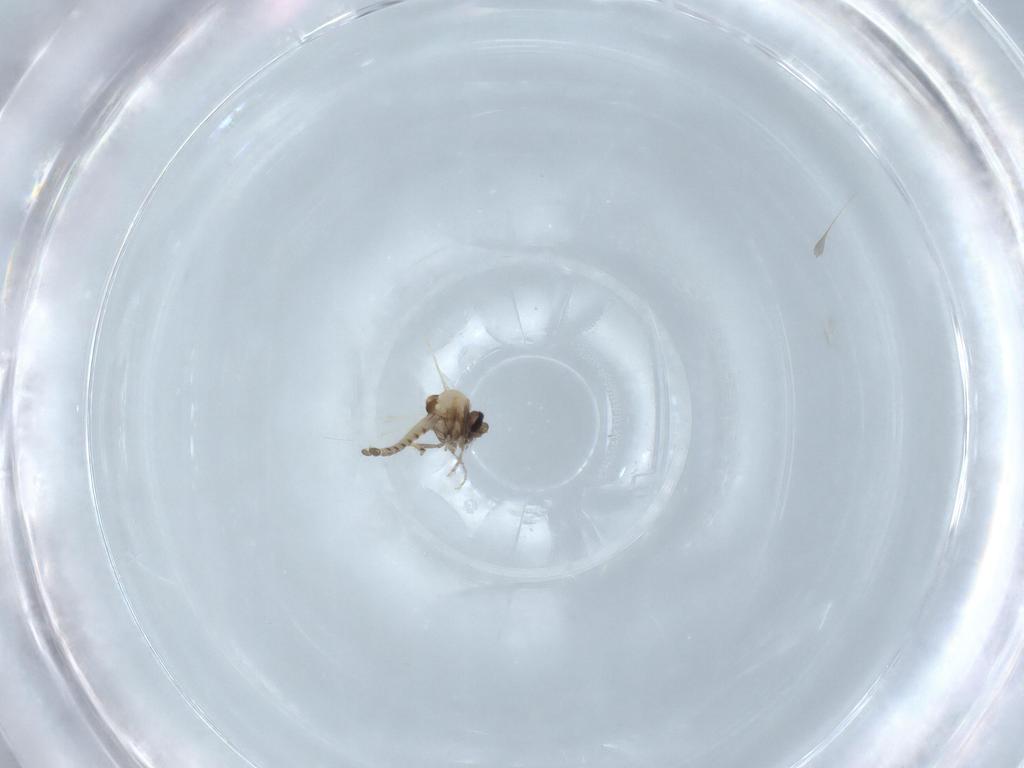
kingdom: Animalia
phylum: Arthropoda
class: Insecta
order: Diptera
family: Ceratopogonidae
